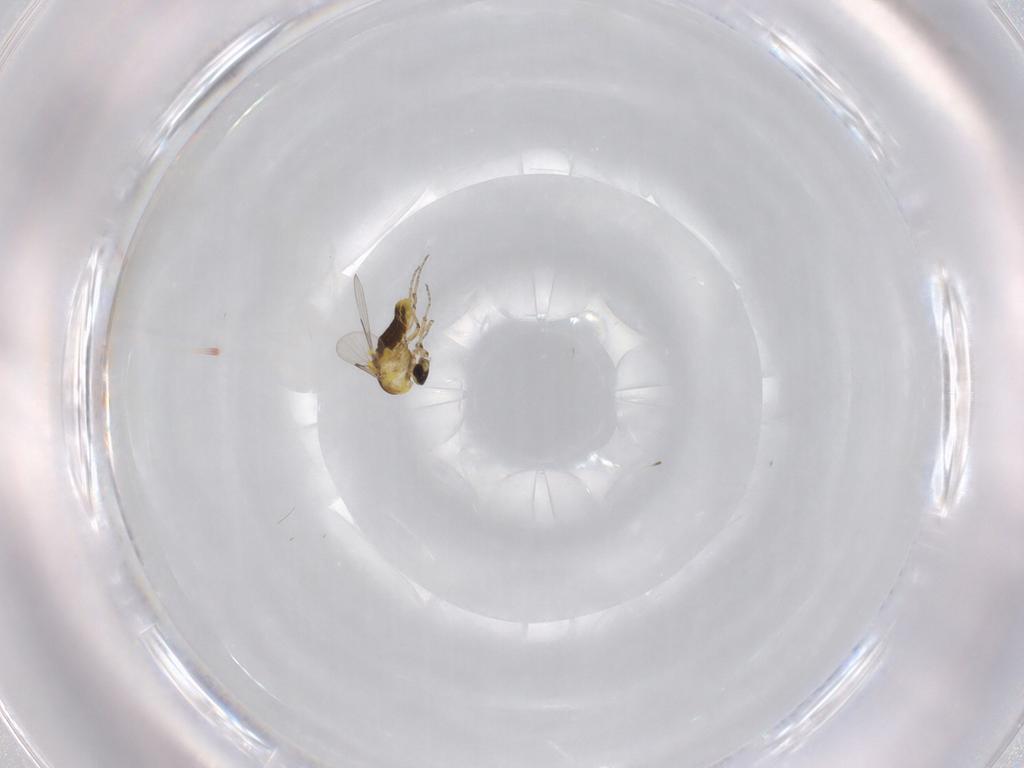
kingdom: Animalia
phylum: Arthropoda
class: Insecta
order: Diptera
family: Ceratopogonidae
